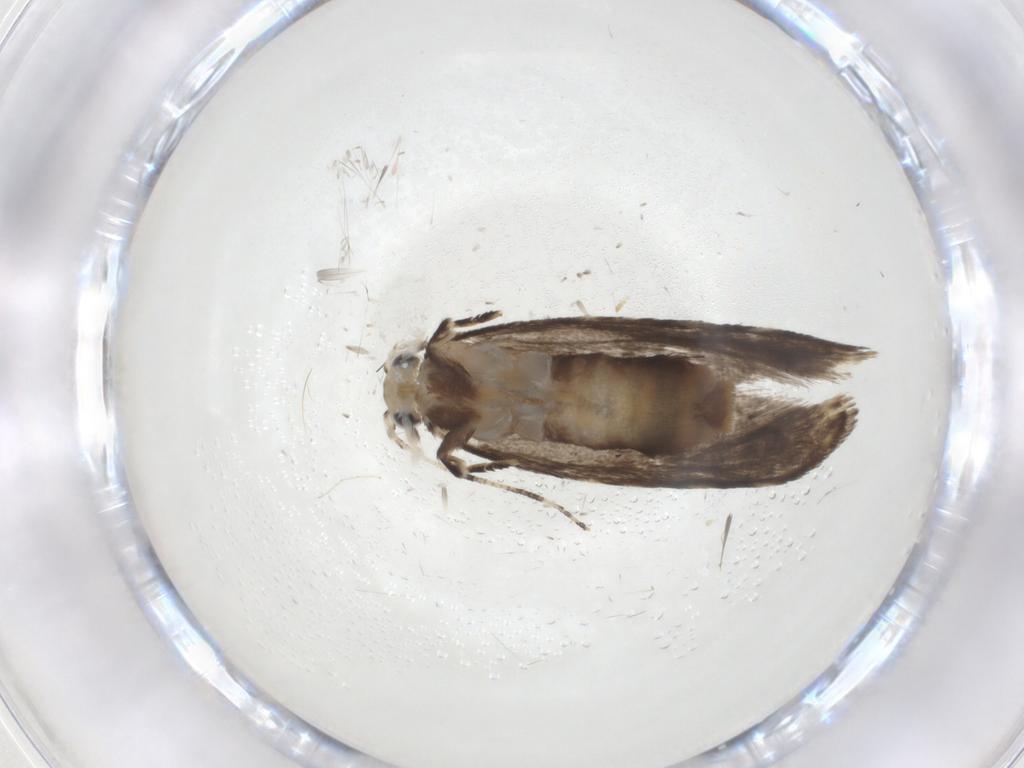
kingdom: Animalia
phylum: Arthropoda
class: Insecta
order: Lepidoptera
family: Tineidae
